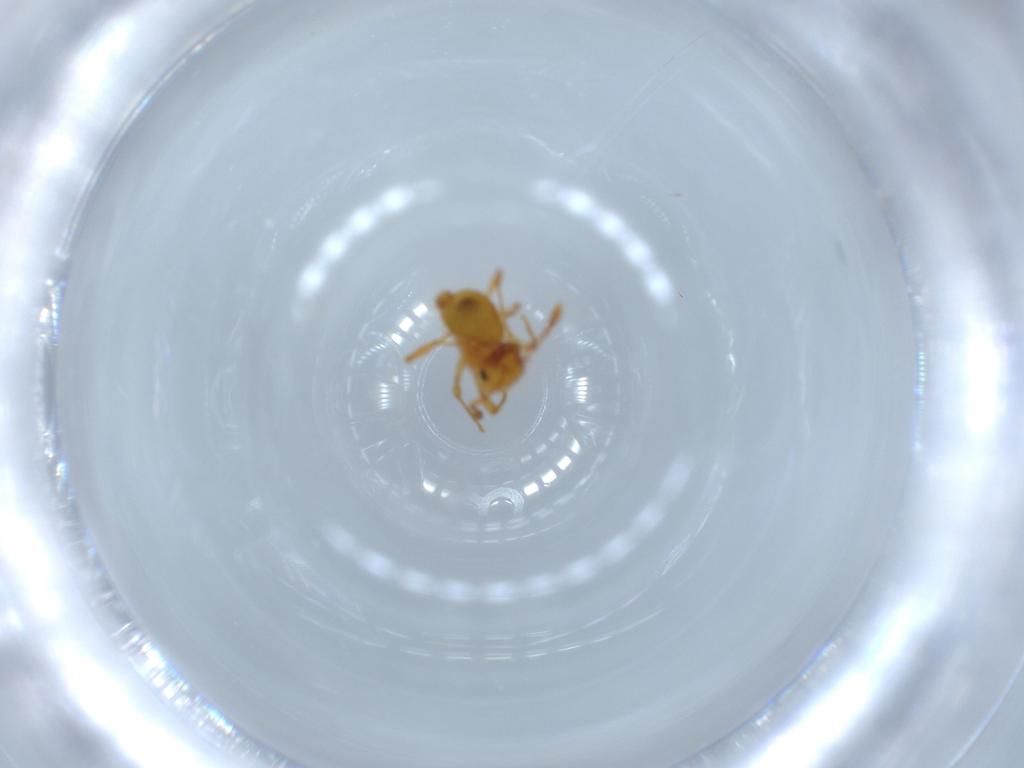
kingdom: Animalia
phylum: Arthropoda
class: Insecta
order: Hymenoptera
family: Formicidae
